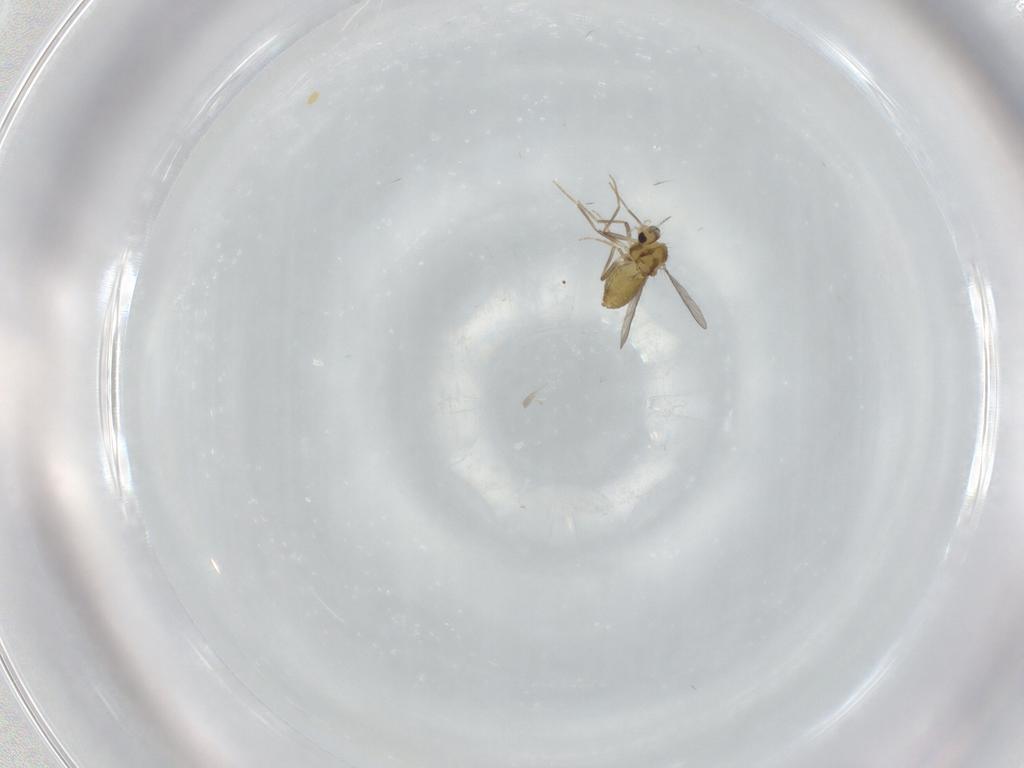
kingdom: Animalia
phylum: Arthropoda
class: Insecta
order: Diptera
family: Chironomidae
